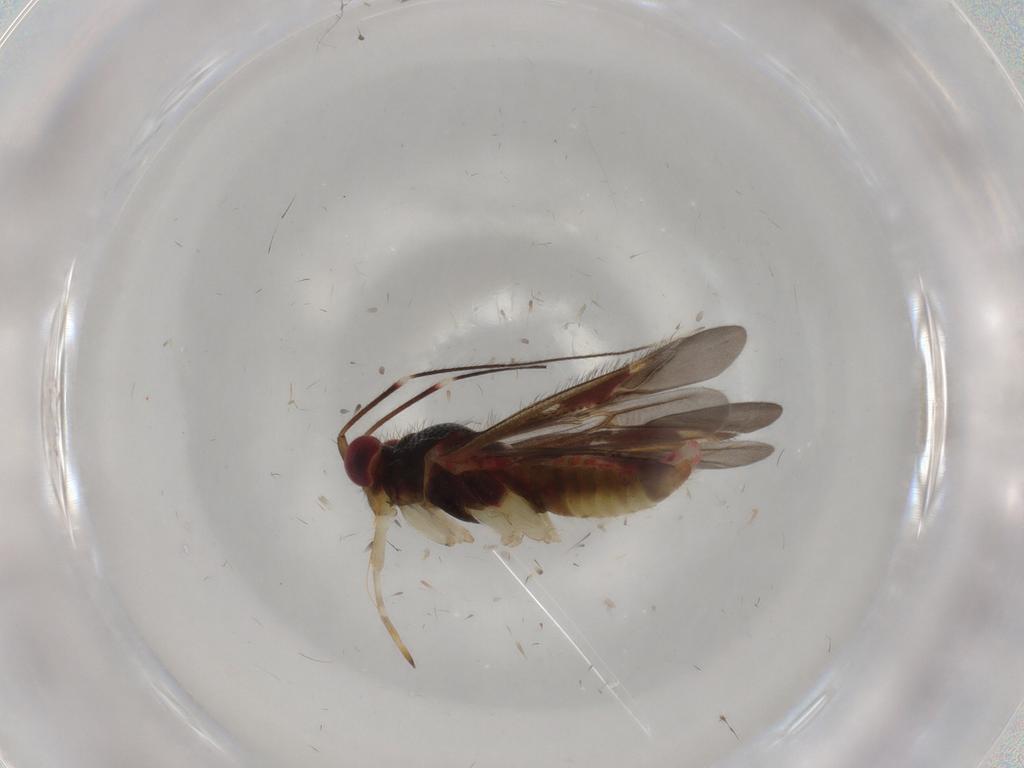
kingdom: Animalia
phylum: Arthropoda
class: Insecta
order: Hemiptera
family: Miridae
